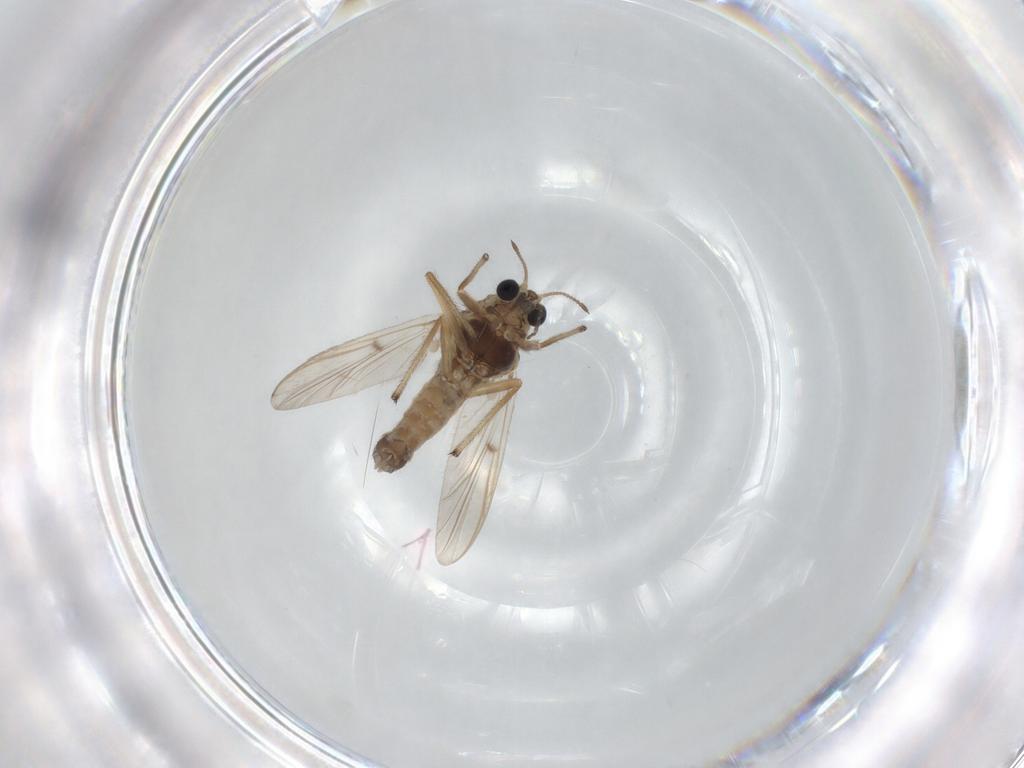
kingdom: Animalia
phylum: Arthropoda
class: Insecta
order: Diptera
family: Chironomidae
